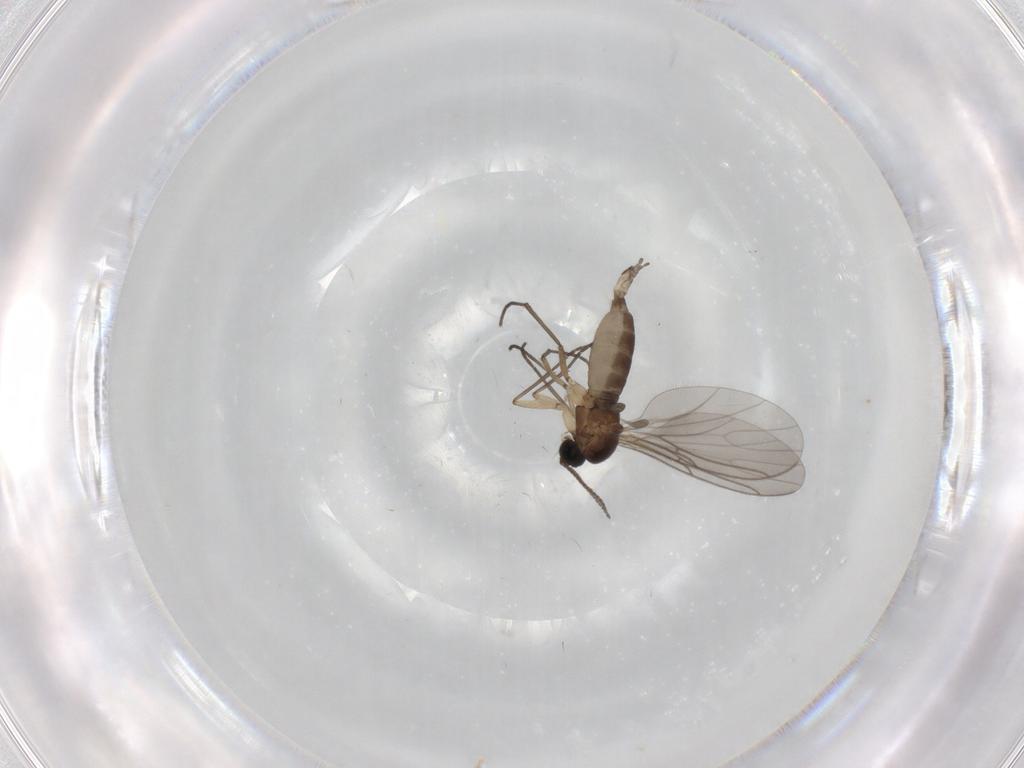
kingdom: Animalia
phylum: Arthropoda
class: Insecta
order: Diptera
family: Sciaridae
